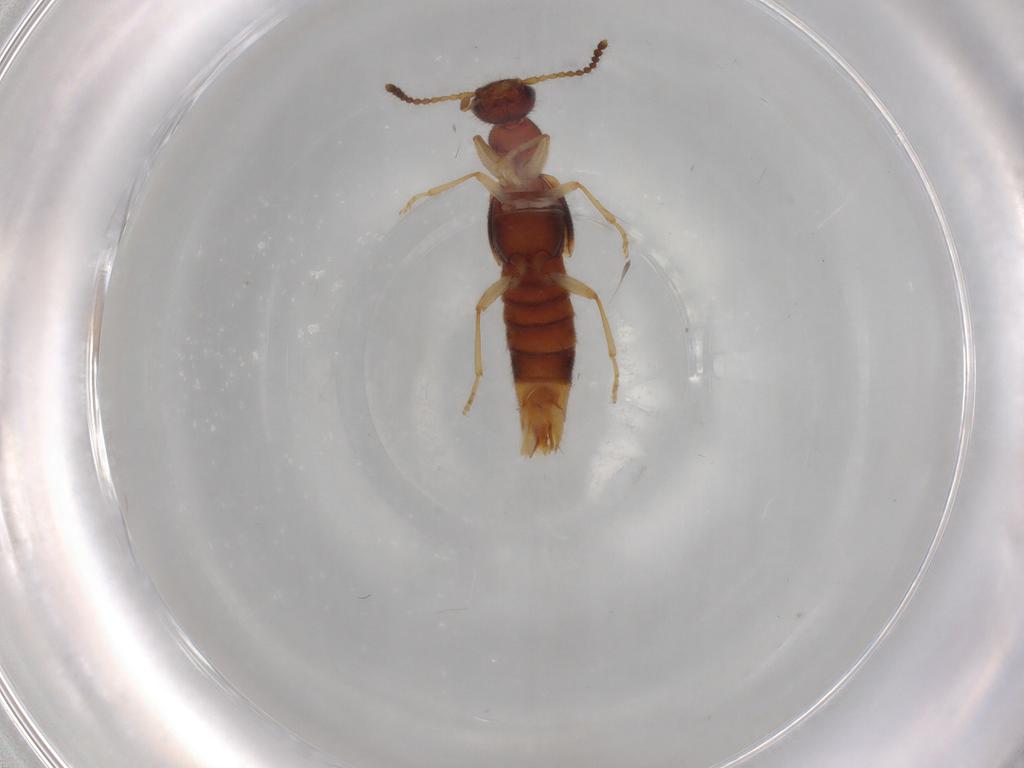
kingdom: Animalia
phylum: Arthropoda
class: Insecta
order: Coleoptera
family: Staphylinidae
